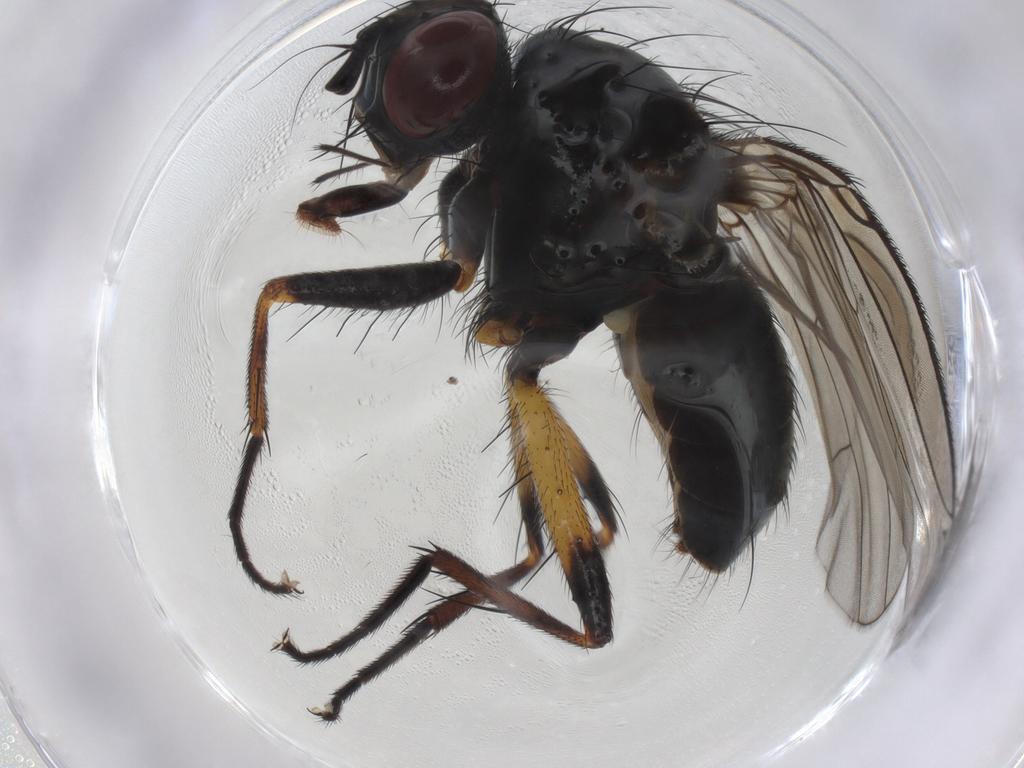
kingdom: Animalia
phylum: Arthropoda
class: Insecta
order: Diptera
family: Muscidae
